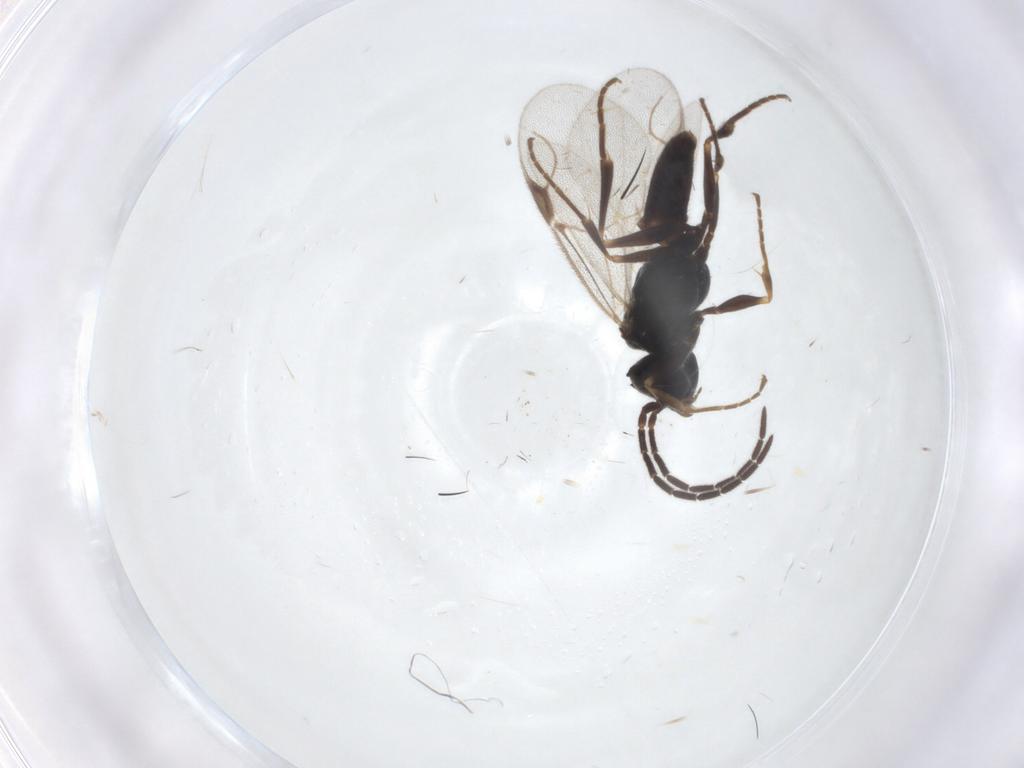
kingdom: Animalia
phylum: Arthropoda
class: Insecta
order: Hymenoptera
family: Dryinidae
